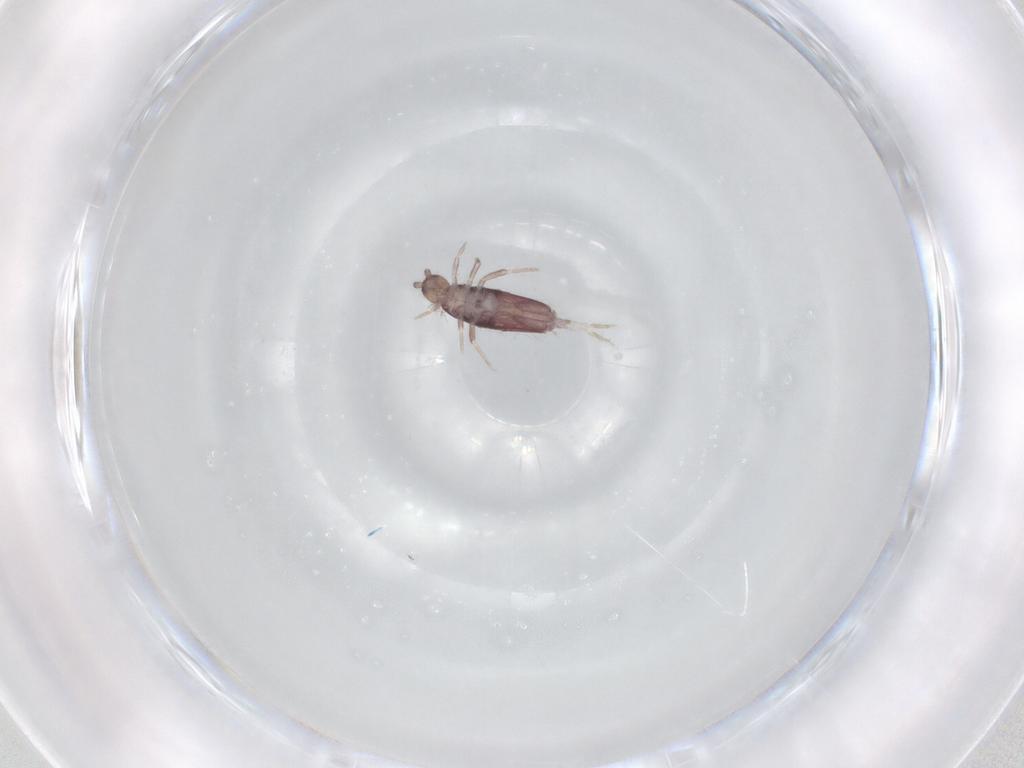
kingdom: Animalia
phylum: Arthropoda
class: Collembola
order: Entomobryomorpha
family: Entomobryidae
